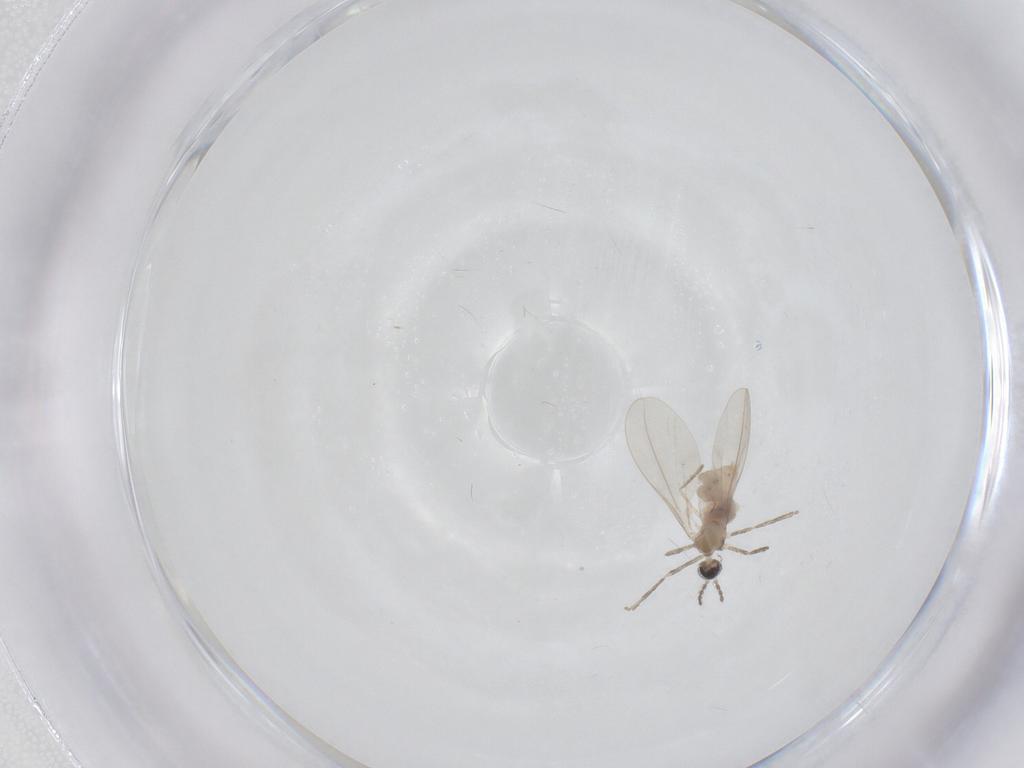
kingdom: Animalia
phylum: Arthropoda
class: Insecta
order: Diptera
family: Cecidomyiidae
